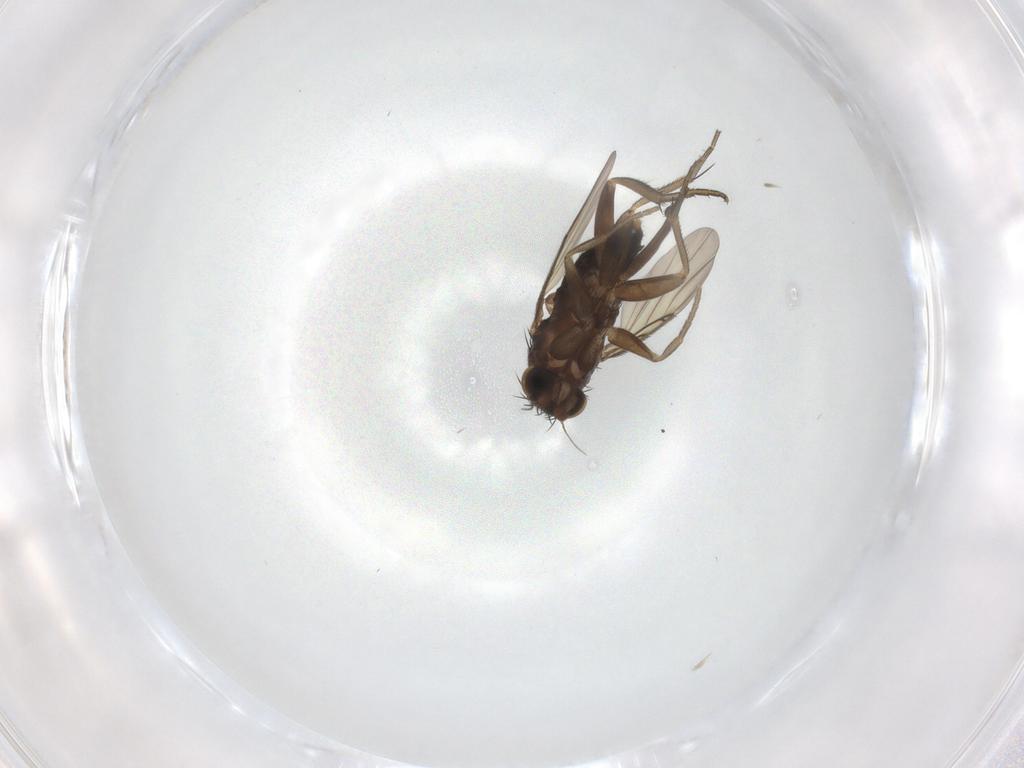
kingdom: Animalia
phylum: Arthropoda
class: Insecta
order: Diptera
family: Phoridae
